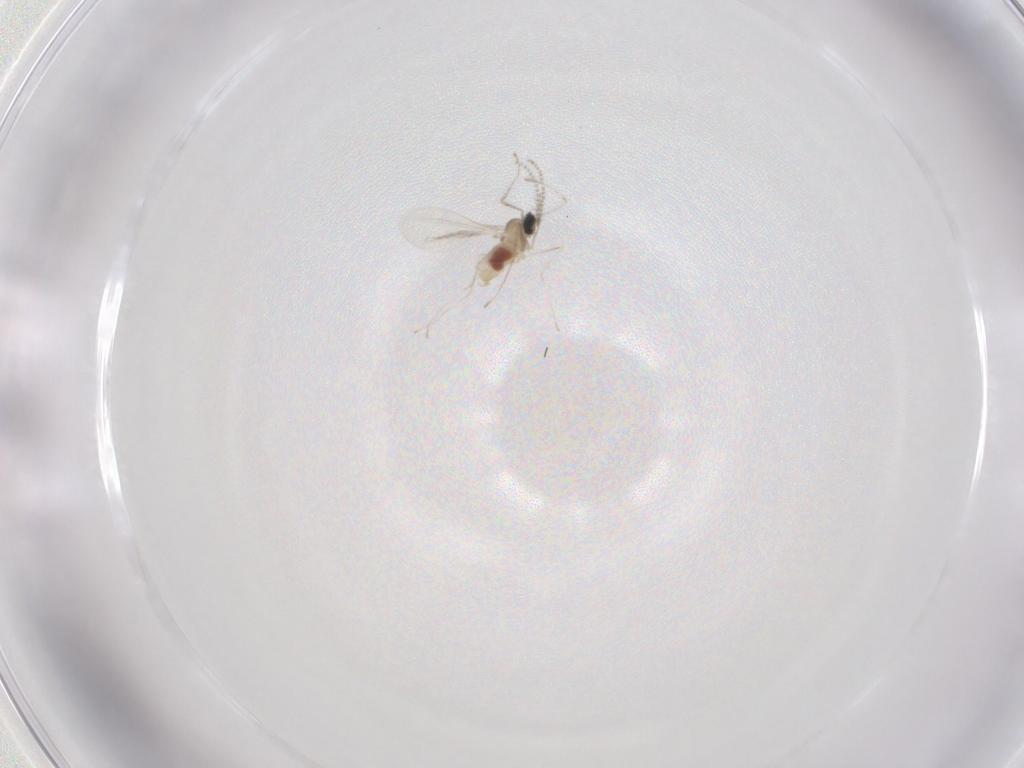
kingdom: Animalia
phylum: Arthropoda
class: Insecta
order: Diptera
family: Cecidomyiidae
